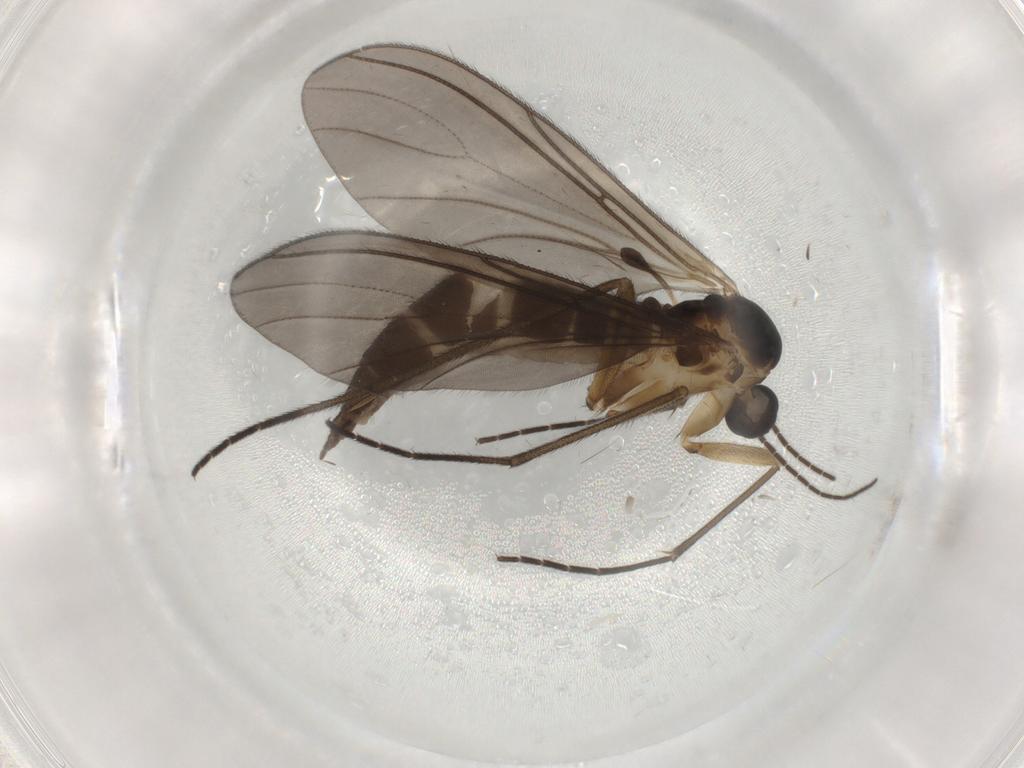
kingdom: Animalia
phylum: Arthropoda
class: Insecta
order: Diptera
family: Sciaridae
